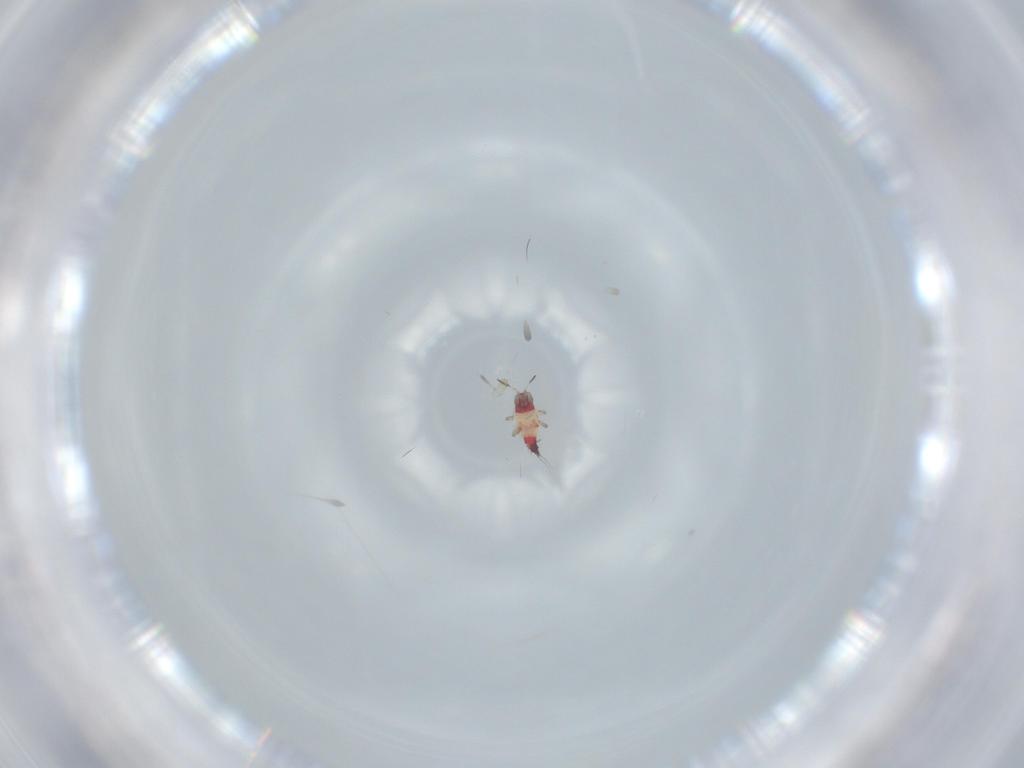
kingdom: Animalia
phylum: Arthropoda
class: Insecta
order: Thysanoptera
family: Phlaeothripidae
